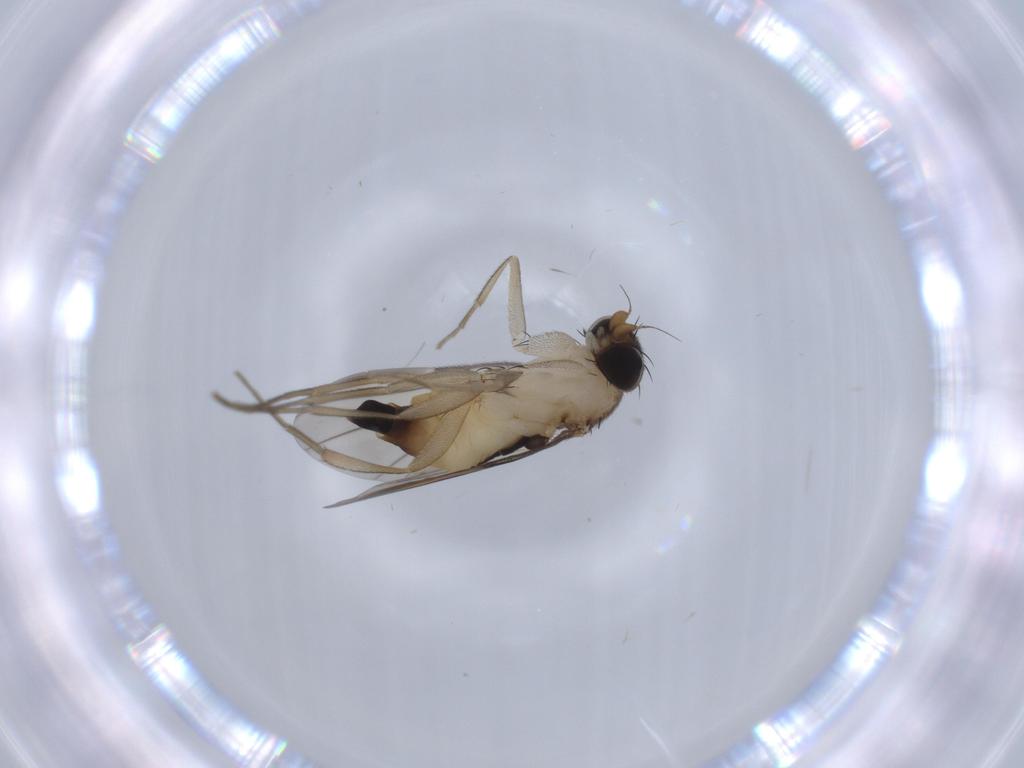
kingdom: Animalia
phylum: Arthropoda
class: Insecta
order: Diptera
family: Phoridae
